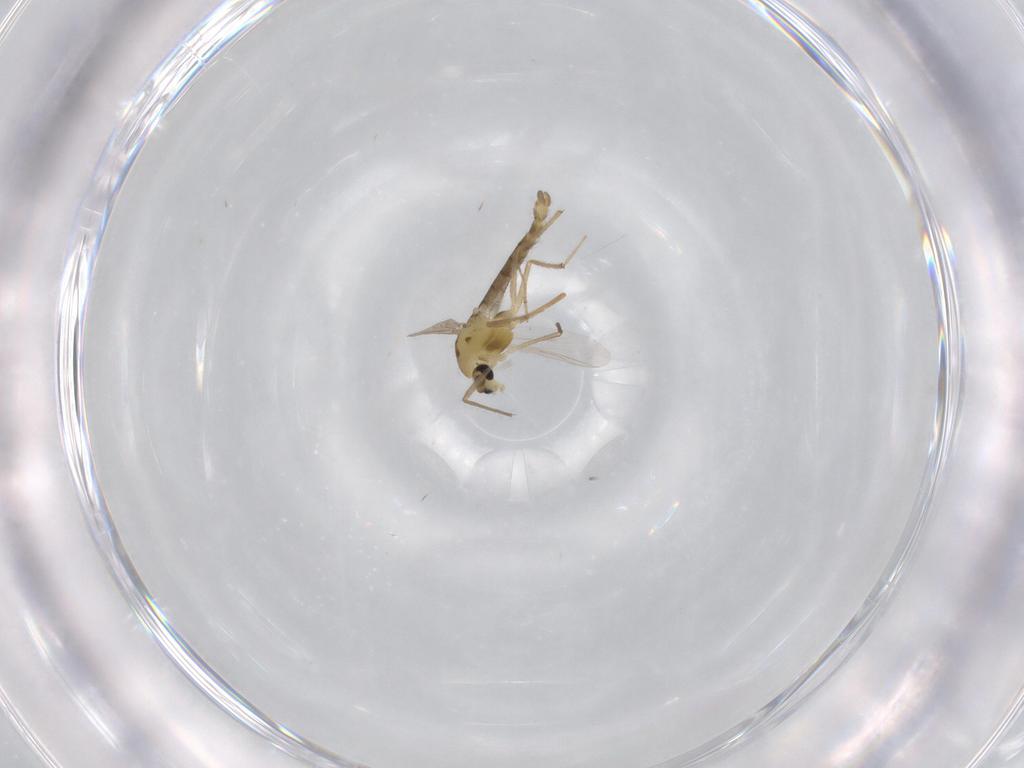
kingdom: Animalia
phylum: Arthropoda
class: Insecta
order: Diptera
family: Chironomidae
